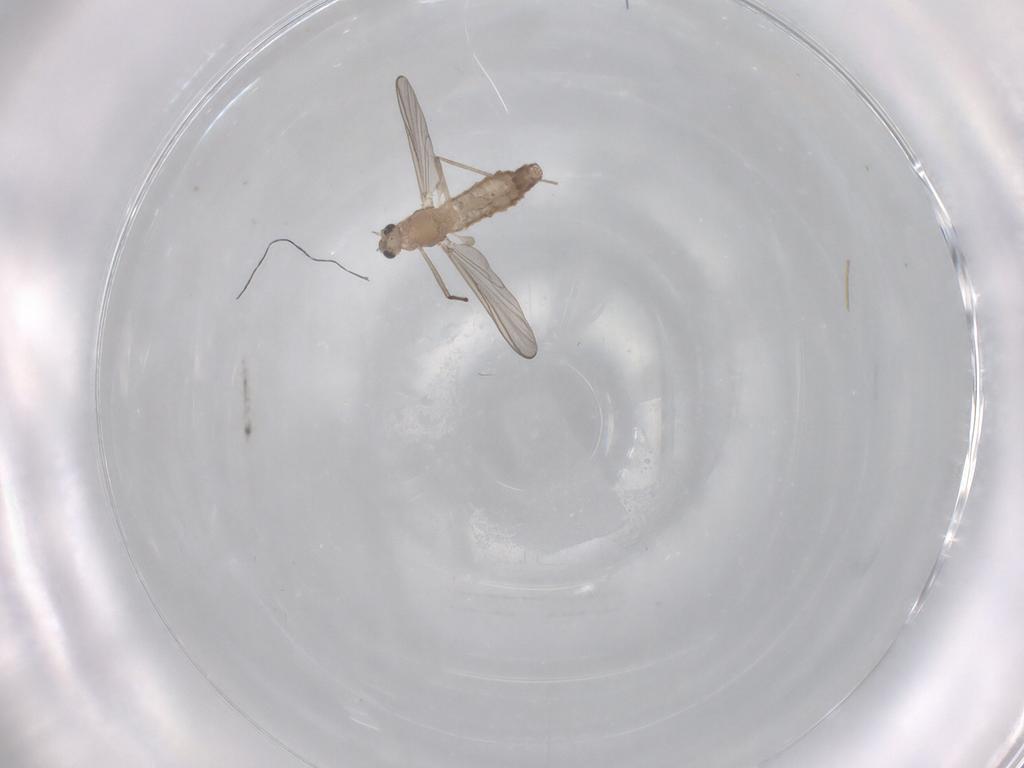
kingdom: Animalia
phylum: Arthropoda
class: Insecta
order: Diptera
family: Chironomidae
